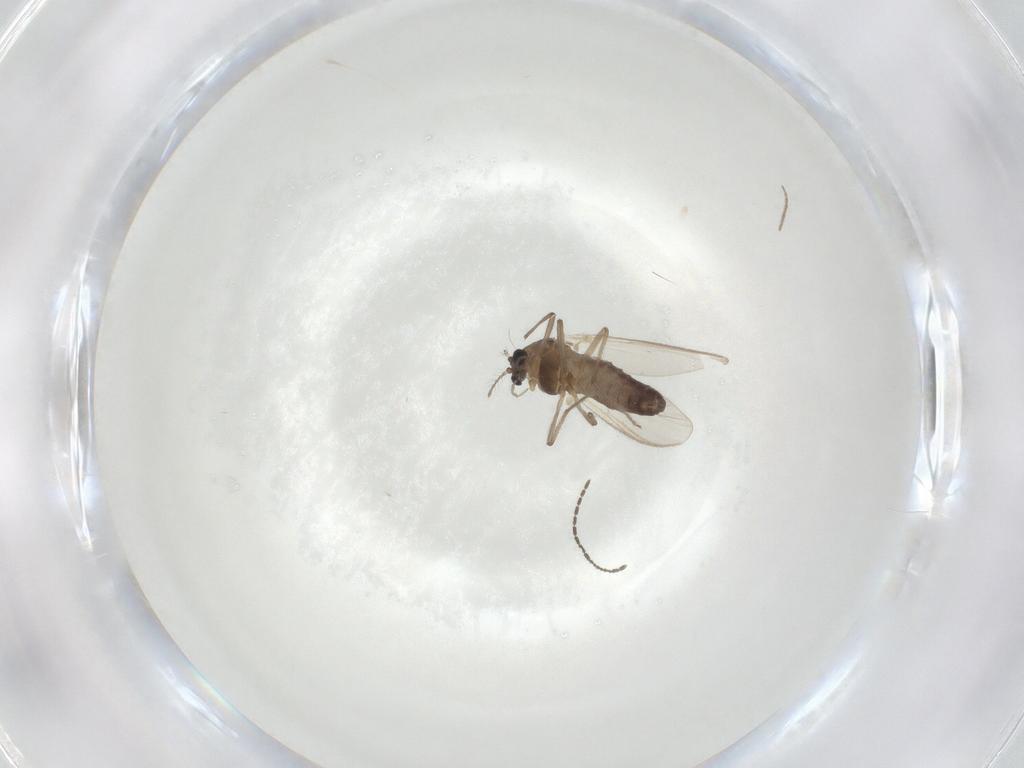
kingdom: Animalia
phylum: Arthropoda
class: Insecta
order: Diptera
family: Chironomidae
